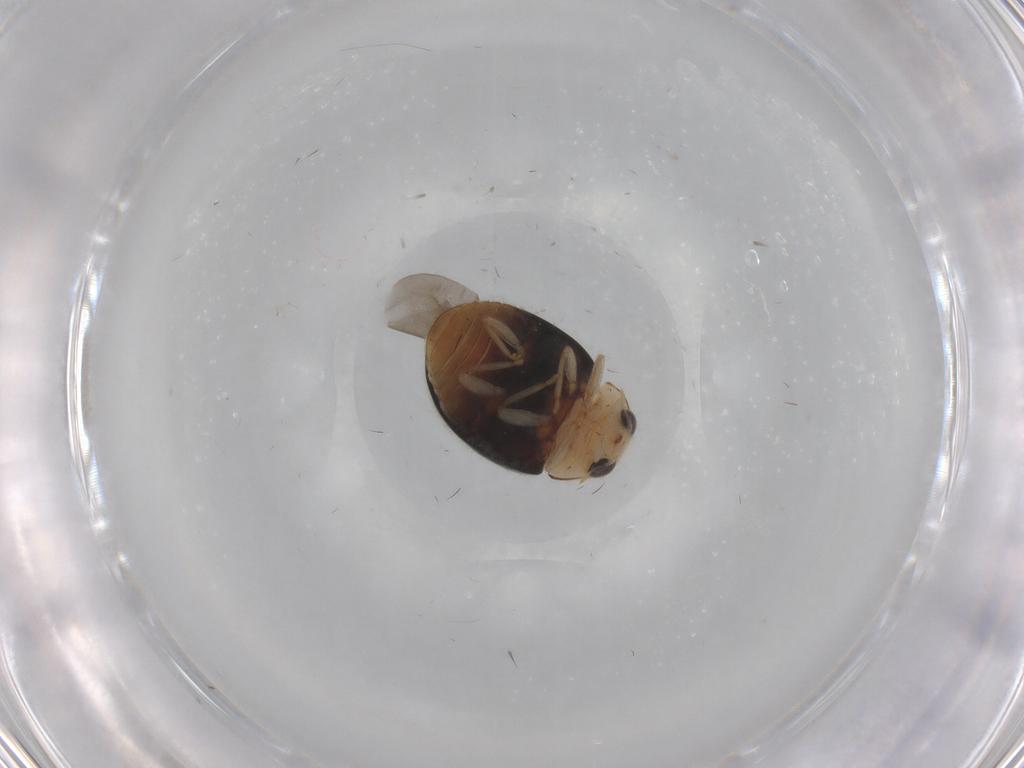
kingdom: Animalia
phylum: Arthropoda
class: Insecta
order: Coleoptera
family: Coccinellidae
